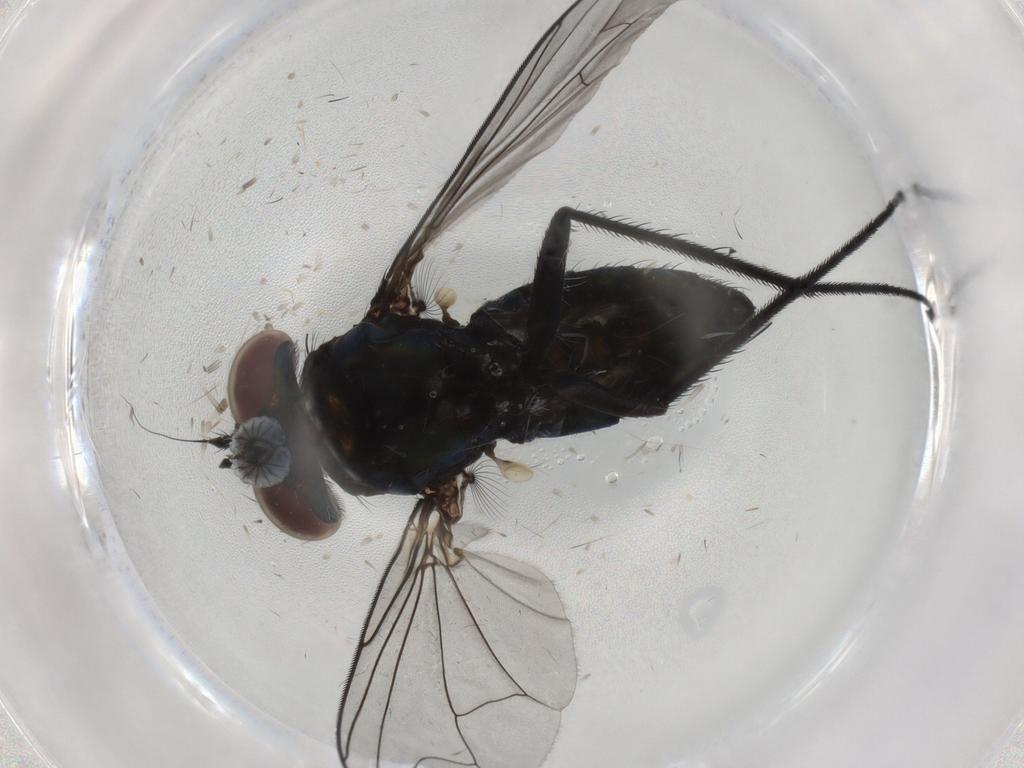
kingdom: Animalia
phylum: Arthropoda
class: Insecta
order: Diptera
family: Dolichopodidae
